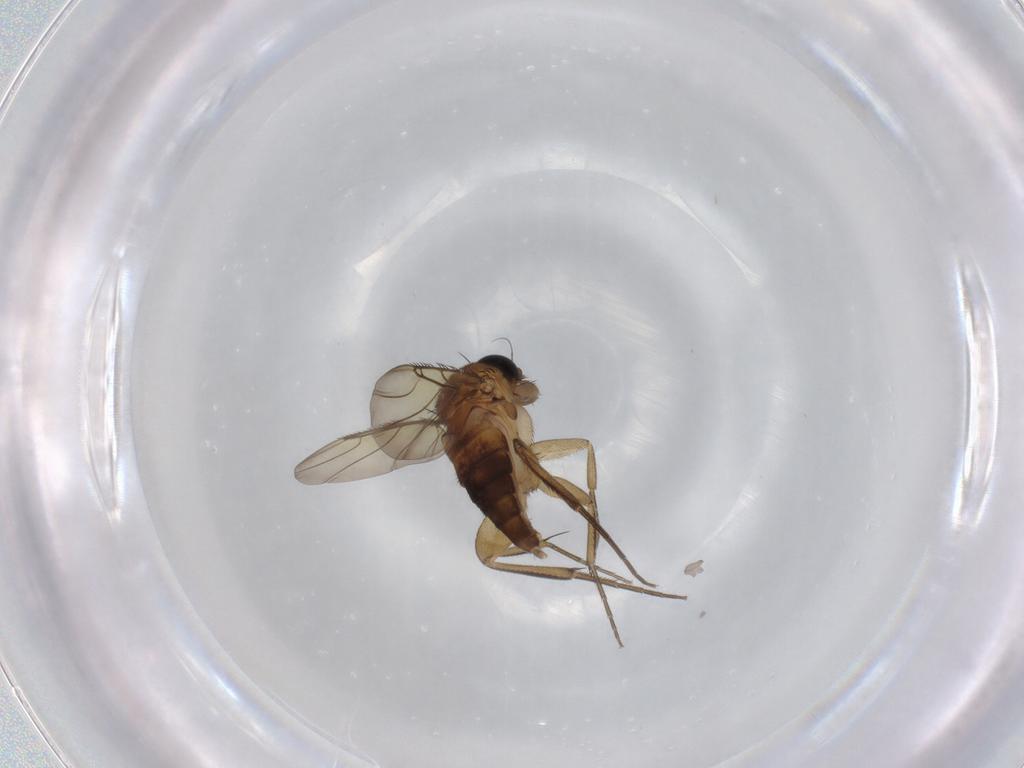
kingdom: Animalia
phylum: Arthropoda
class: Insecta
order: Diptera
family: Phoridae
